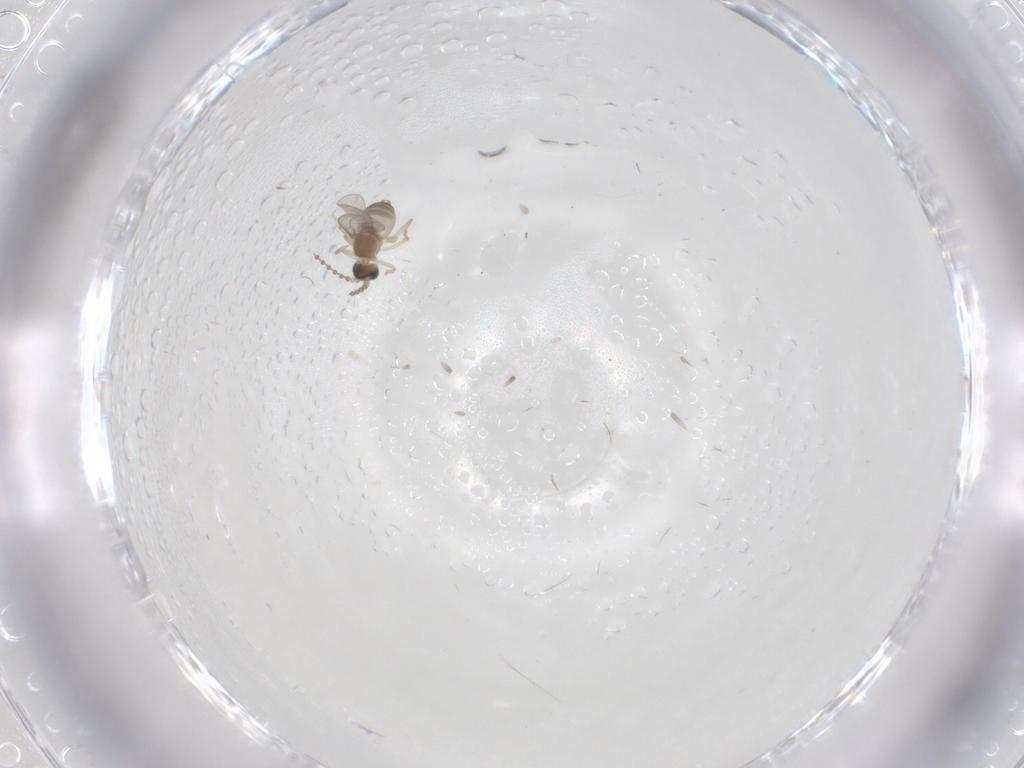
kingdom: Animalia
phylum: Arthropoda
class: Insecta
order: Diptera
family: Cecidomyiidae
